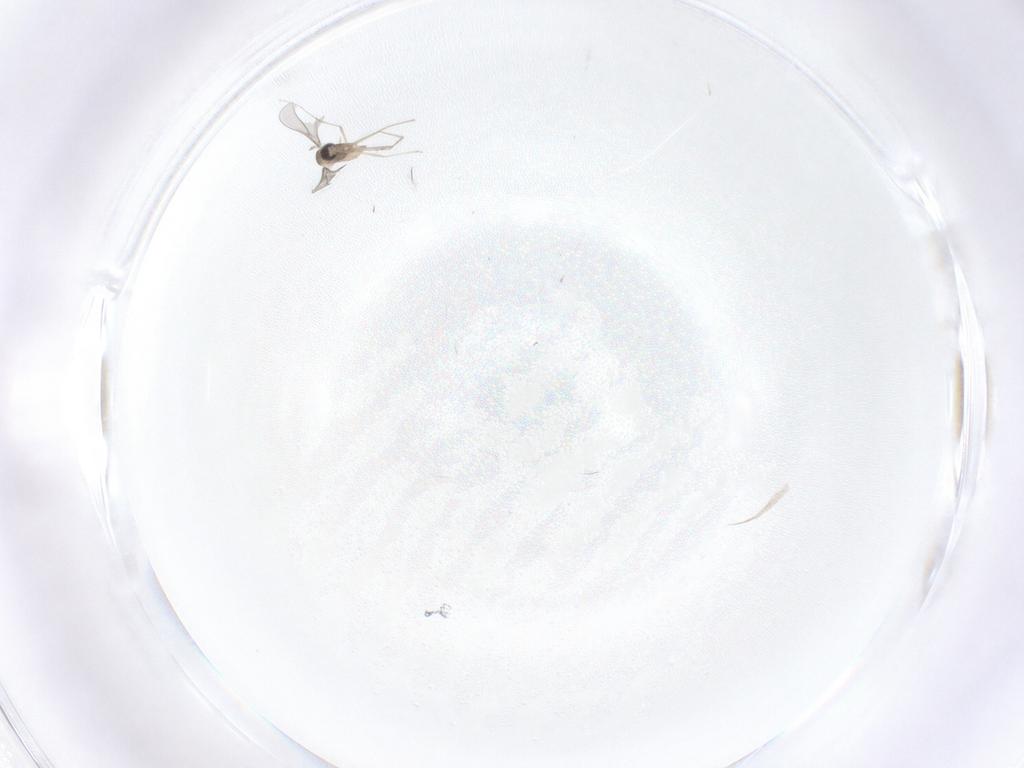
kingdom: Animalia
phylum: Arthropoda
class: Insecta
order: Diptera
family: Cecidomyiidae
